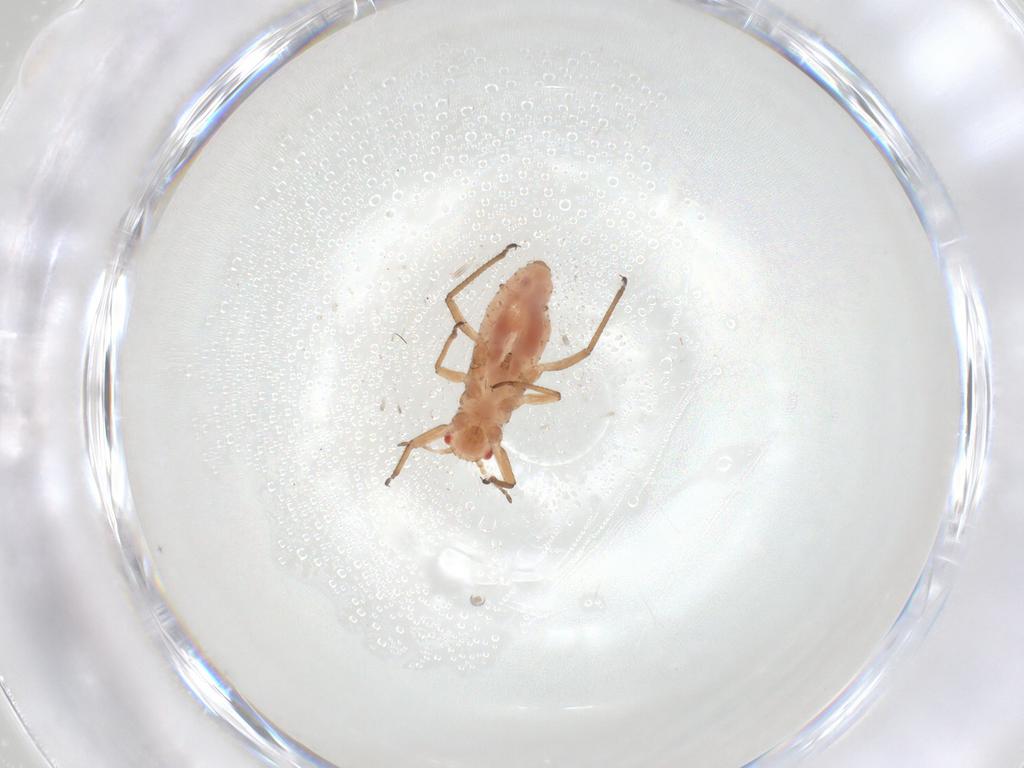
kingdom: Animalia
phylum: Arthropoda
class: Insecta
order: Hemiptera
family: Lachnidae
